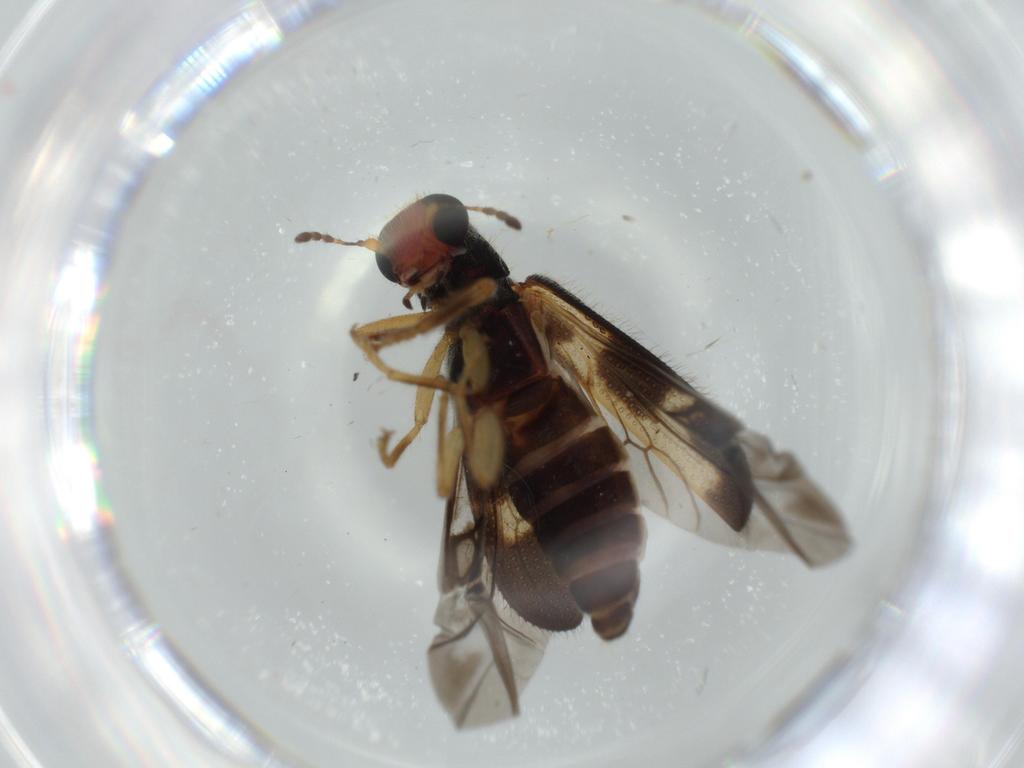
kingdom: Animalia
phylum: Arthropoda
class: Insecta
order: Coleoptera
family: Cleridae
